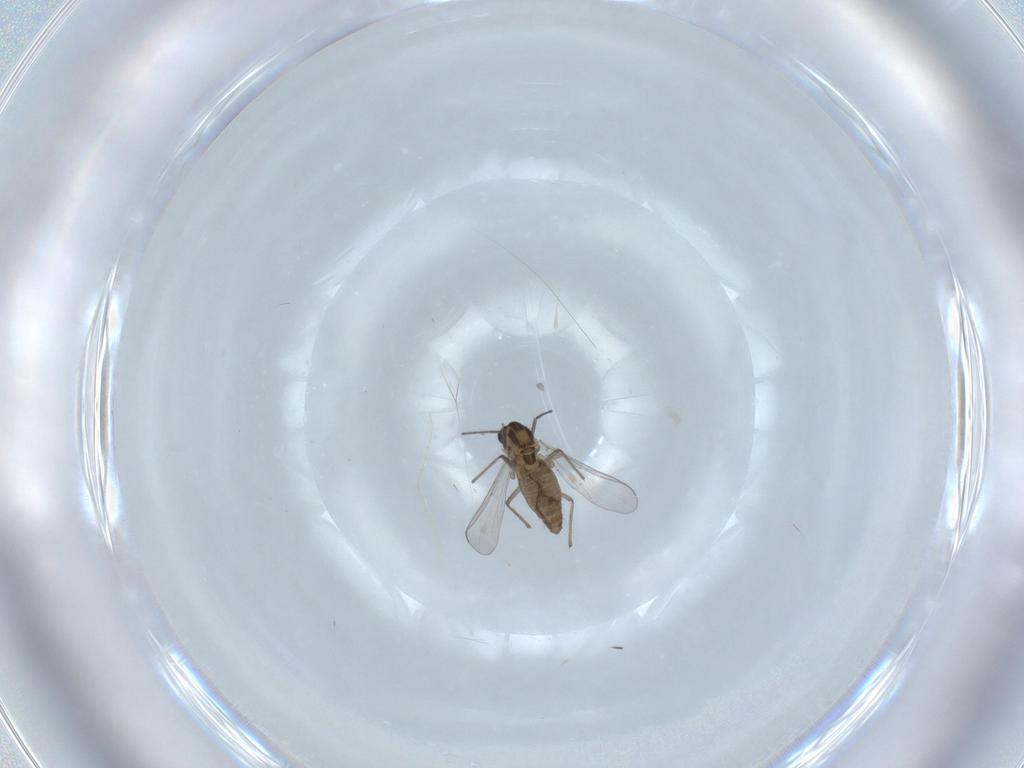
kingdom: Animalia
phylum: Arthropoda
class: Insecta
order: Diptera
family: Chironomidae
